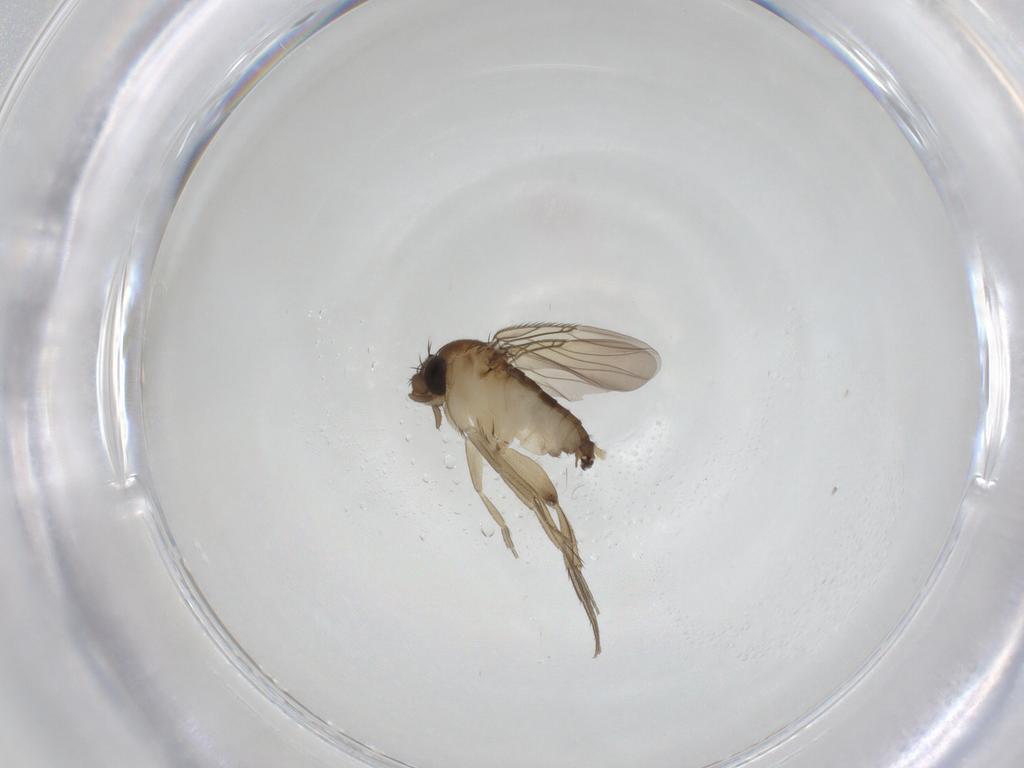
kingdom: Animalia
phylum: Arthropoda
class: Insecta
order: Diptera
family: Phoridae
